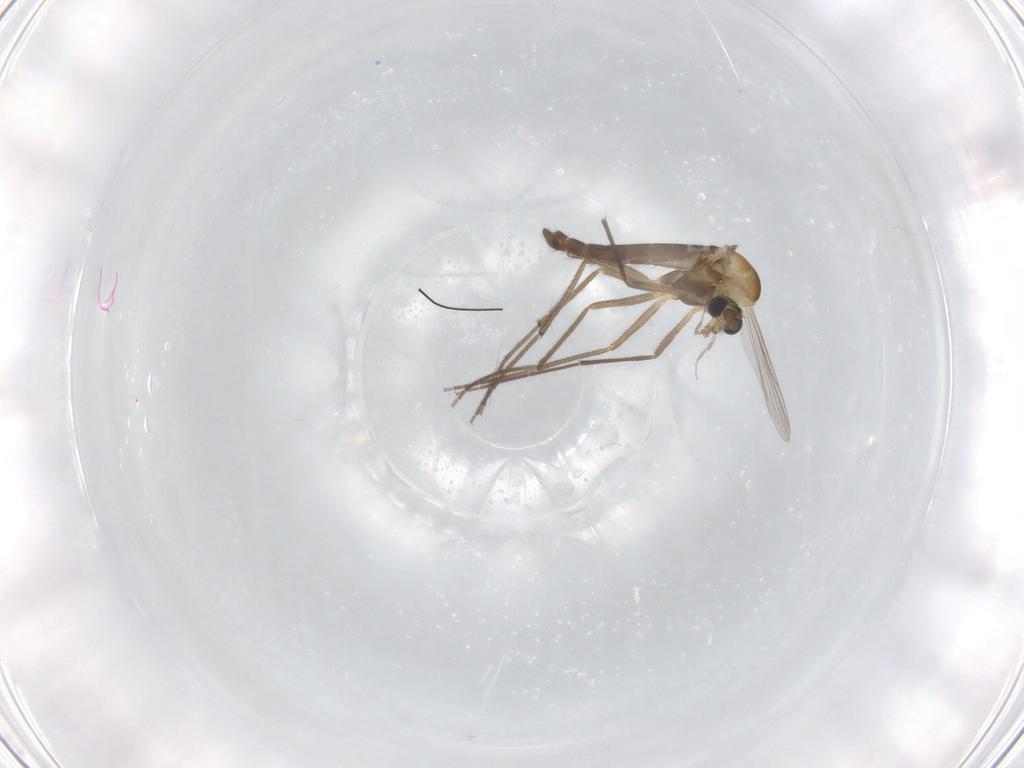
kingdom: Animalia
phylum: Arthropoda
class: Insecta
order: Diptera
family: Chironomidae
